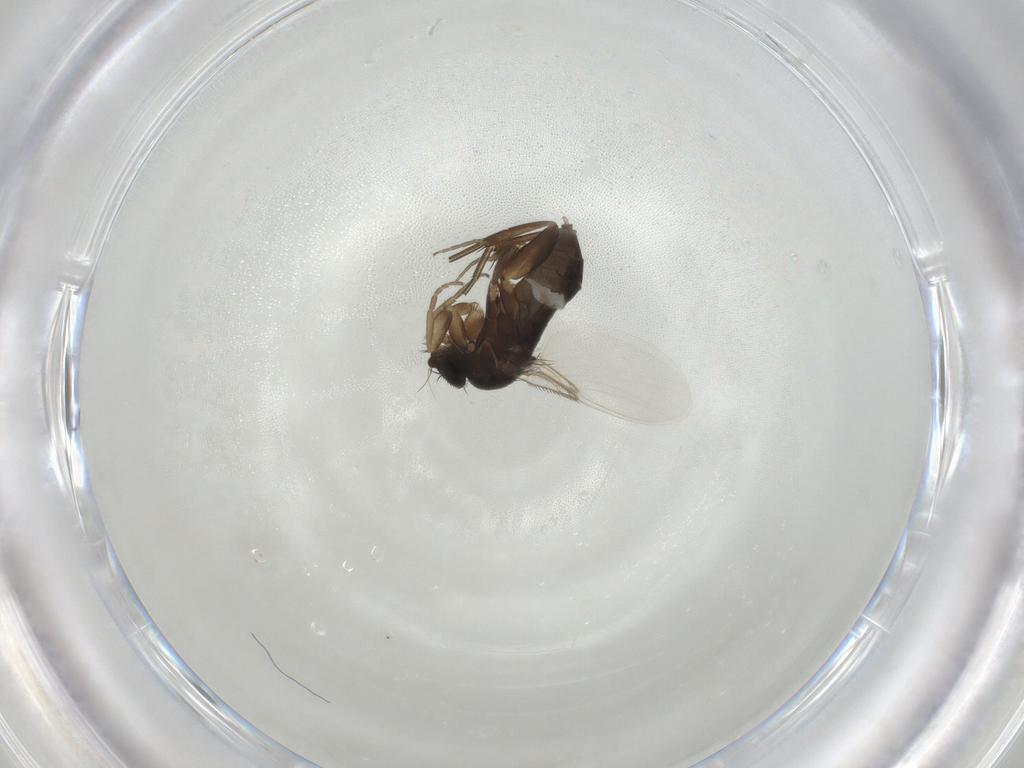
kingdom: Animalia
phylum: Arthropoda
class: Insecta
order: Diptera
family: Phoridae
